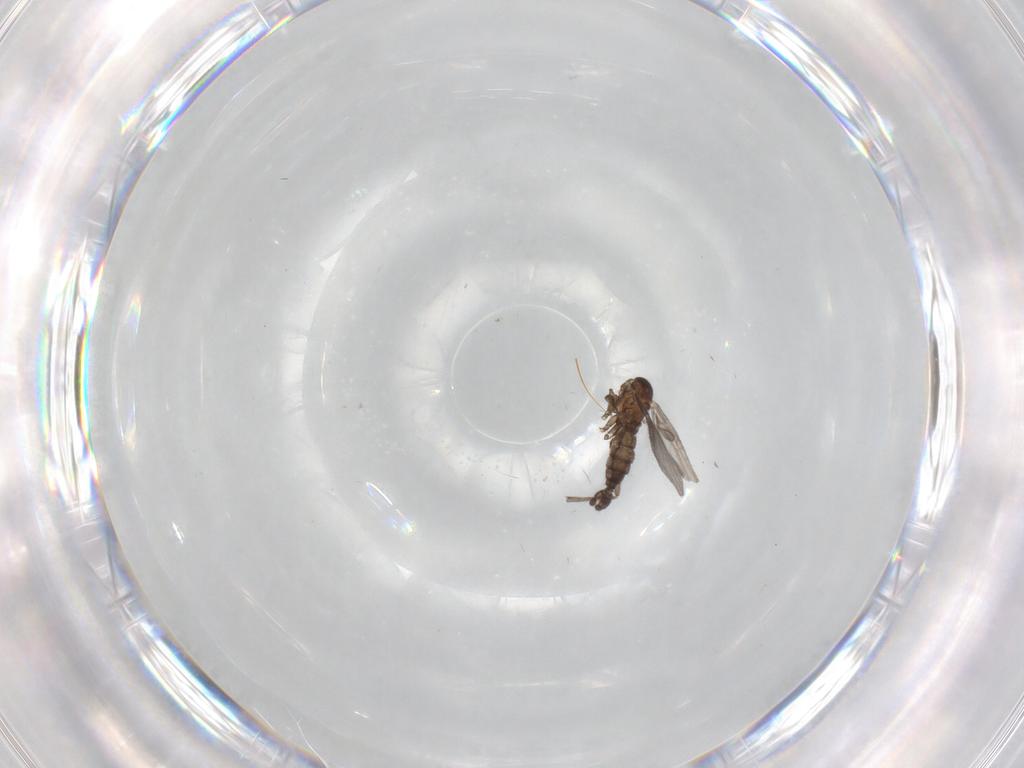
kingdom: Animalia
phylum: Arthropoda
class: Insecta
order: Diptera
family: Sciaridae
